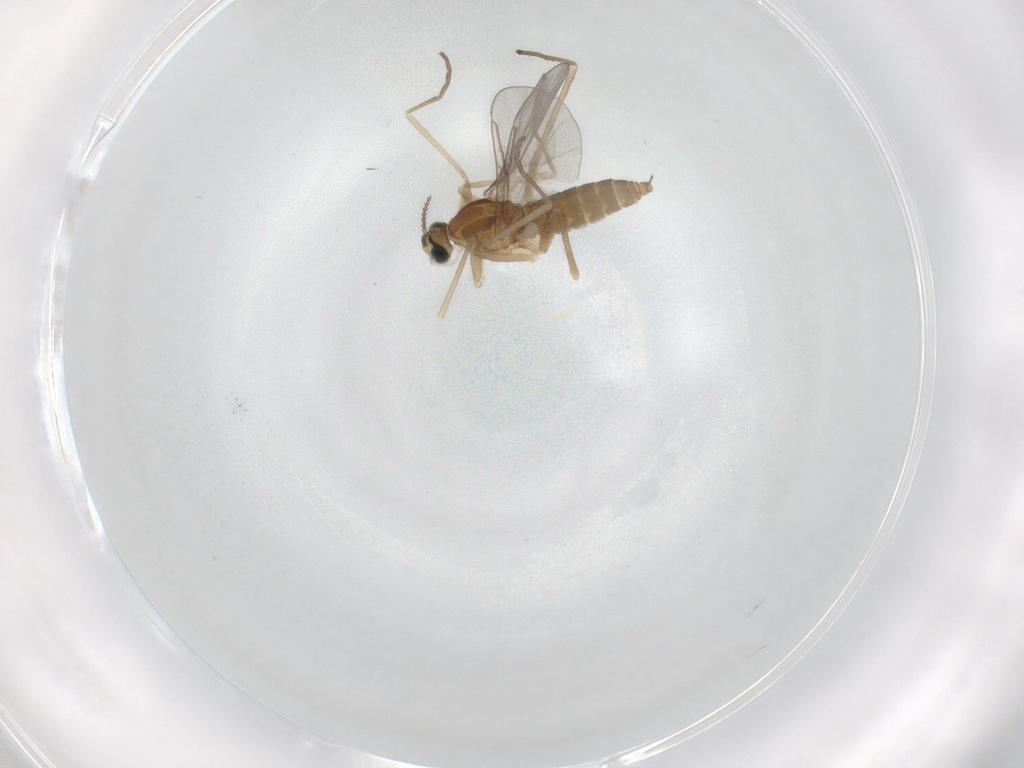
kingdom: Animalia
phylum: Arthropoda
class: Insecta
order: Diptera
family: Cecidomyiidae
